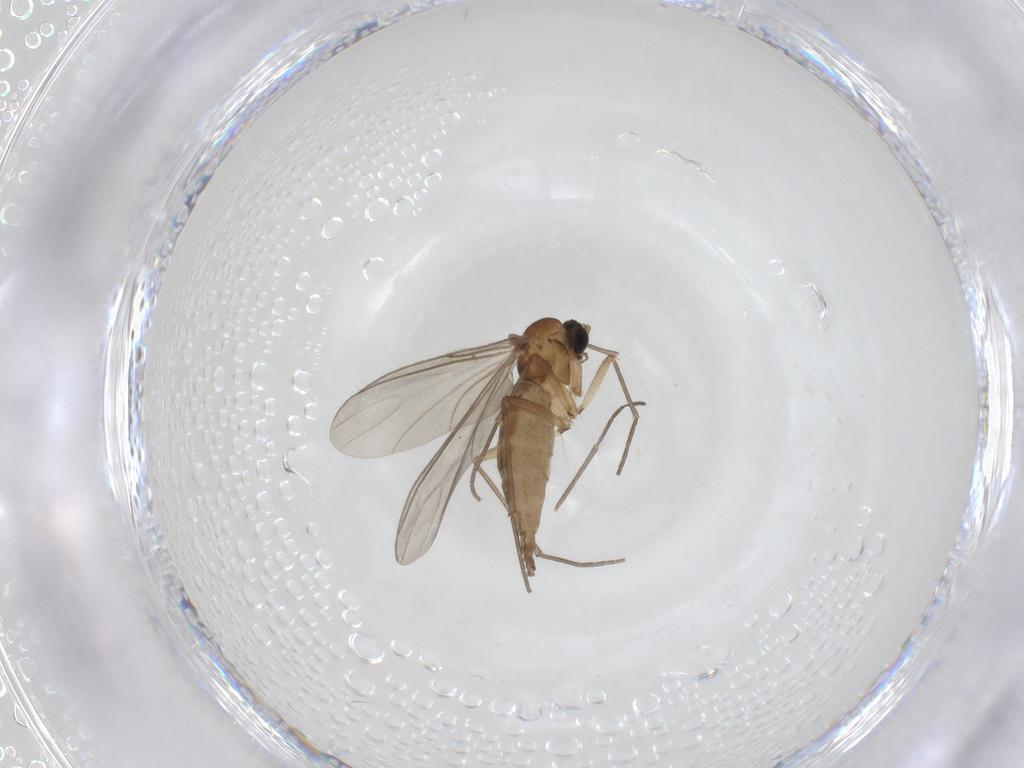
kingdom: Animalia
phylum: Arthropoda
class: Insecta
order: Diptera
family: Sciaridae
